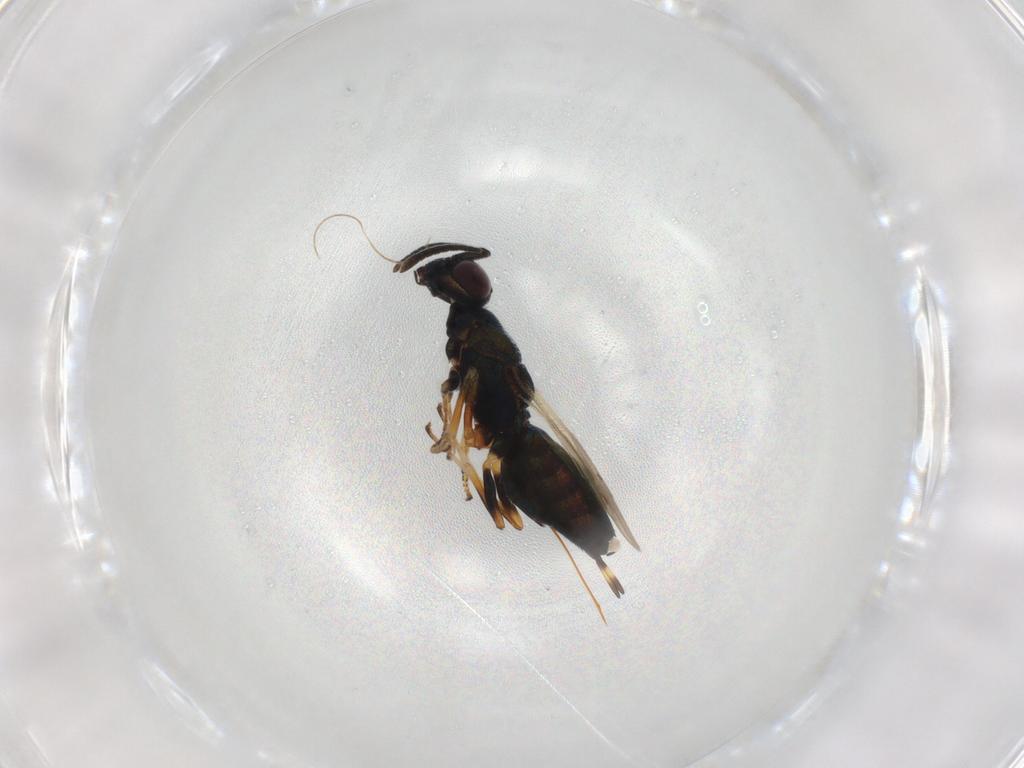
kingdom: Animalia
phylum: Arthropoda
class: Insecta
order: Hymenoptera
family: Eupelmidae
